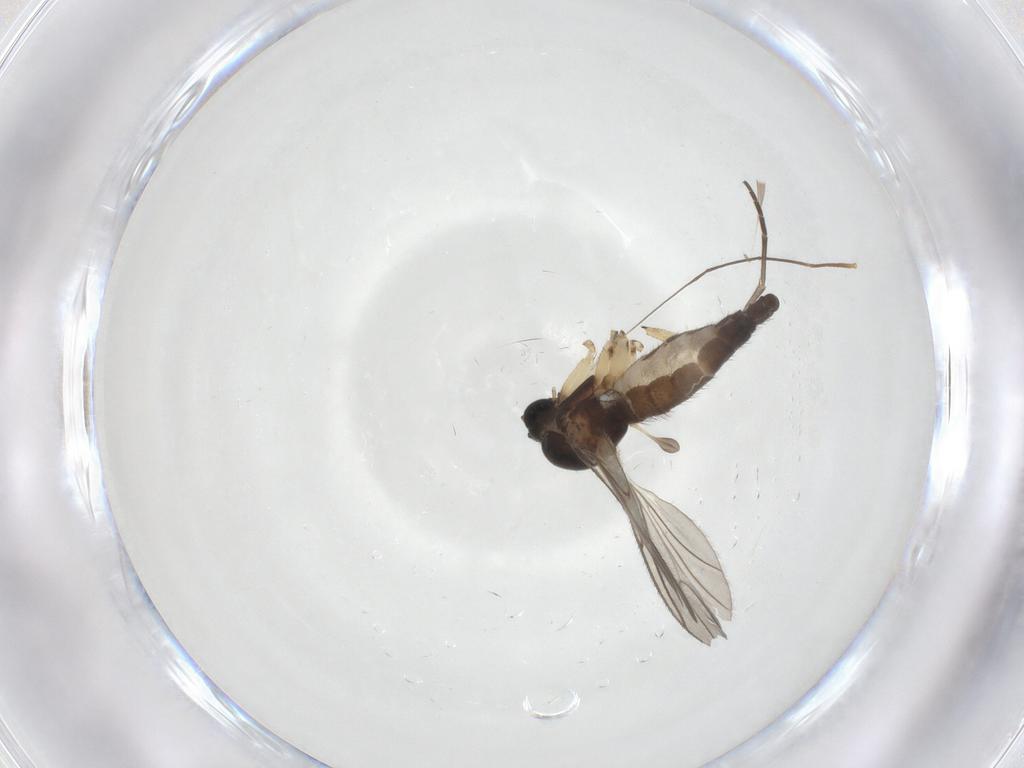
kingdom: Animalia
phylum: Arthropoda
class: Insecta
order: Diptera
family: Sciaridae
